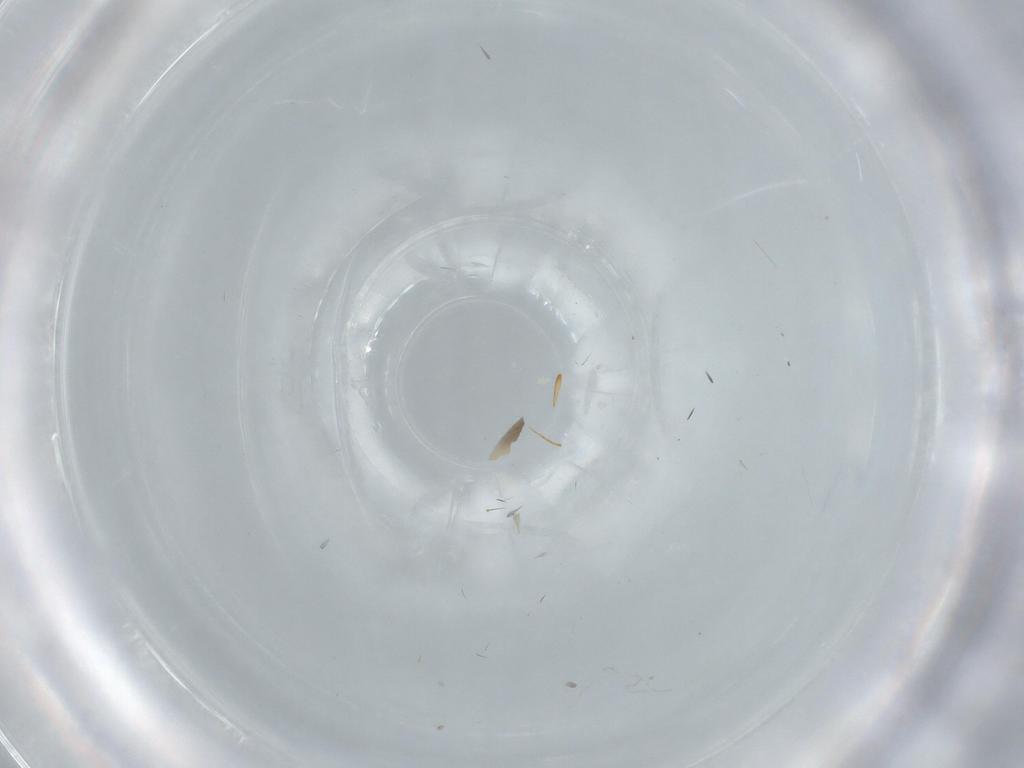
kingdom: Animalia
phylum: Arthropoda
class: Insecta
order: Hemiptera
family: Cicadellidae
